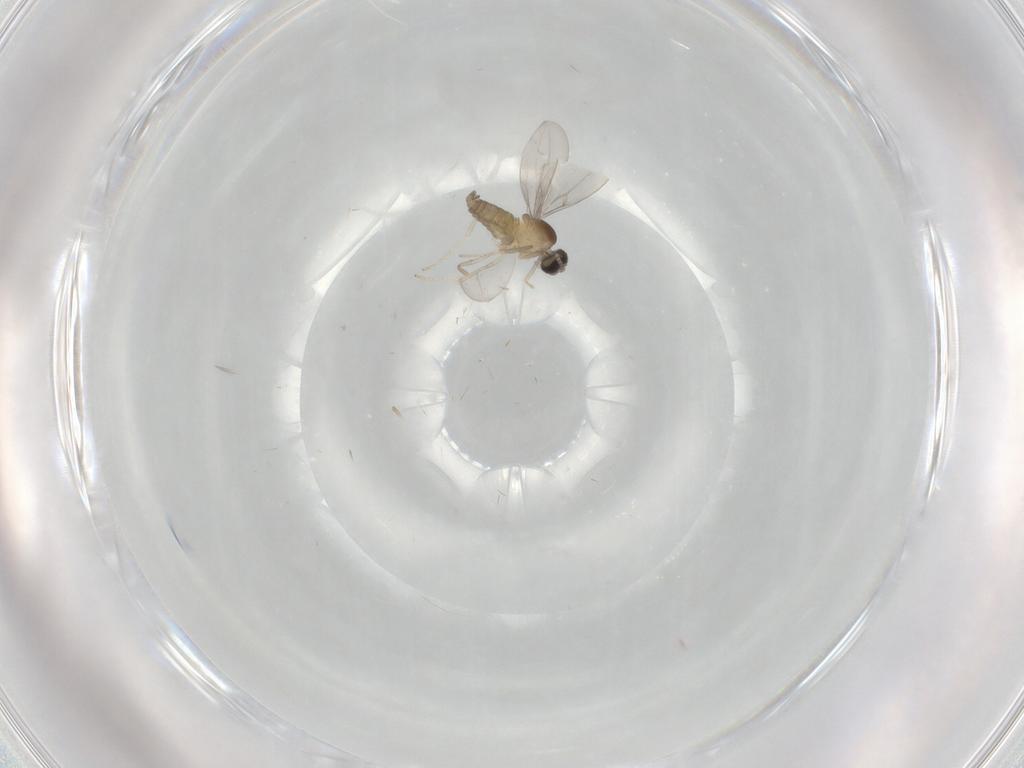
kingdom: Animalia
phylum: Arthropoda
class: Insecta
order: Diptera
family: Cecidomyiidae
